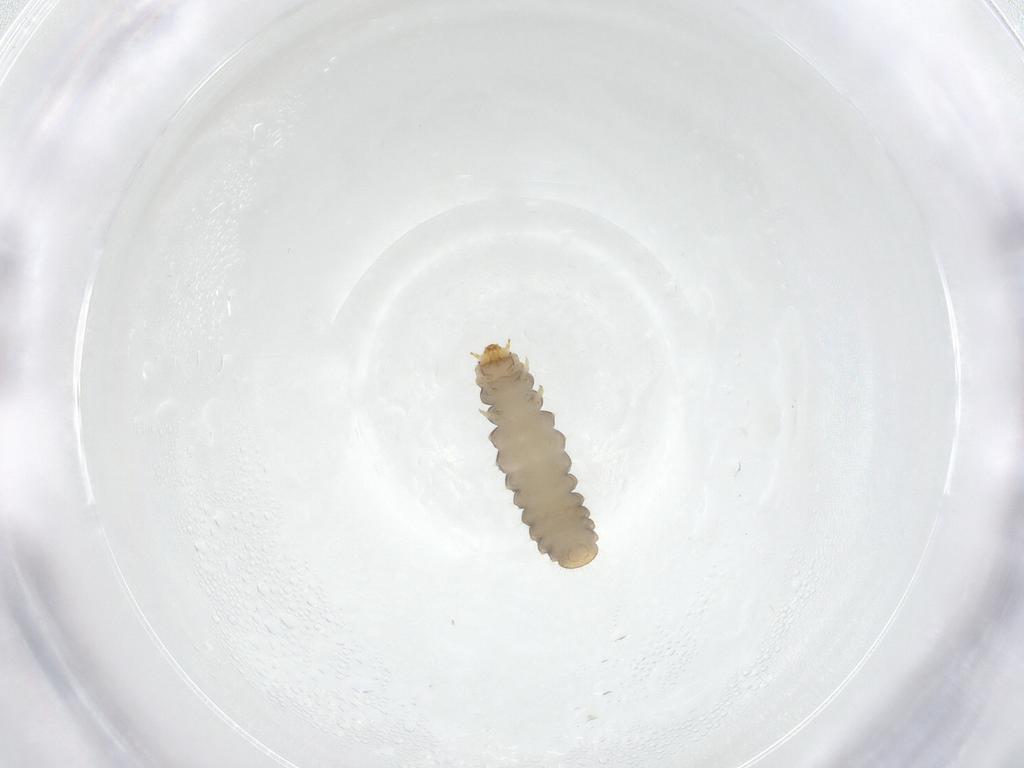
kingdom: Animalia
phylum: Arthropoda
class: Insecta
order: Coleoptera
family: Corylophidae
